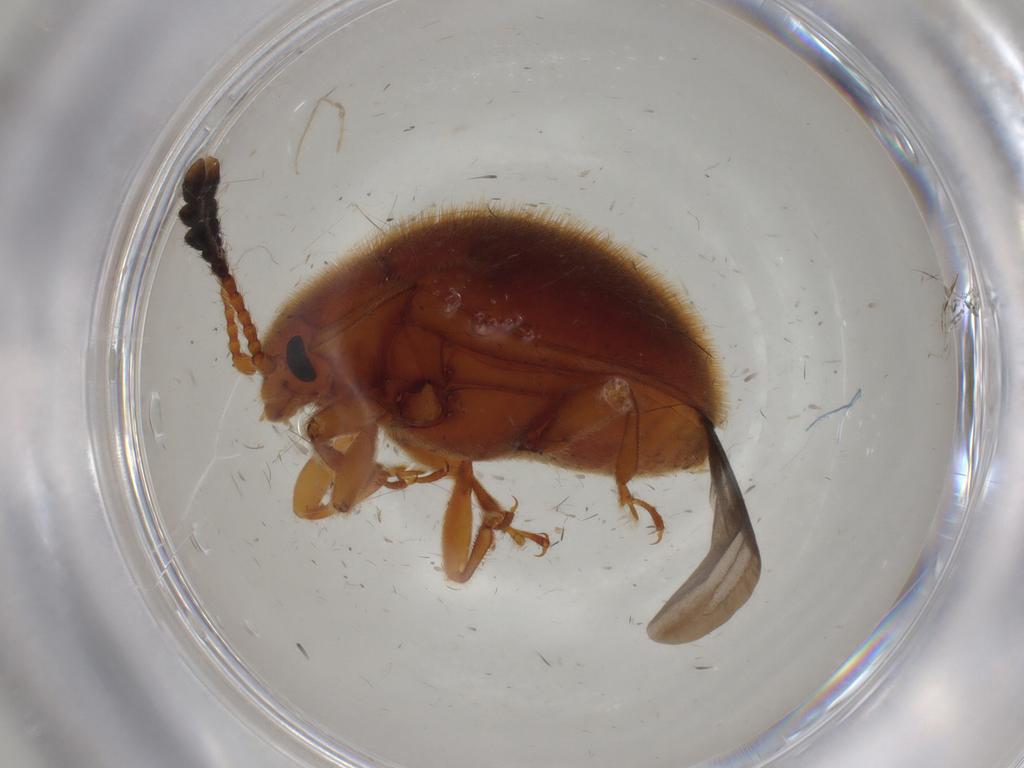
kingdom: Animalia
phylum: Arthropoda
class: Insecta
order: Coleoptera
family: Endomychidae
